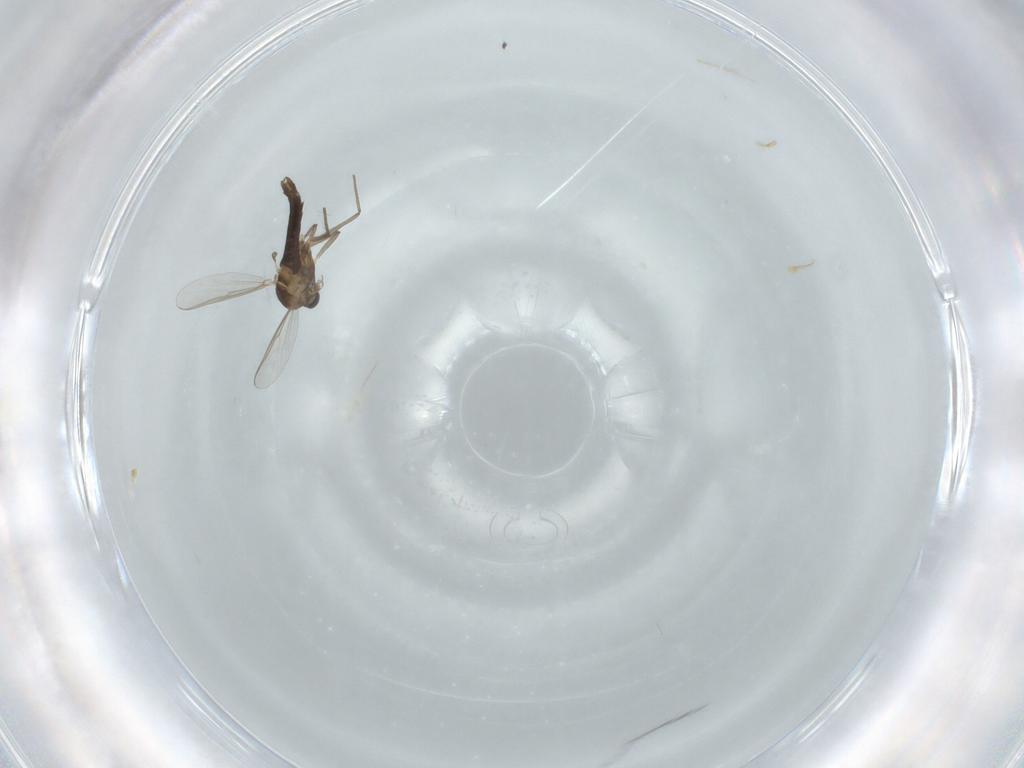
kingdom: Animalia
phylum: Arthropoda
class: Insecta
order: Diptera
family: Chironomidae
